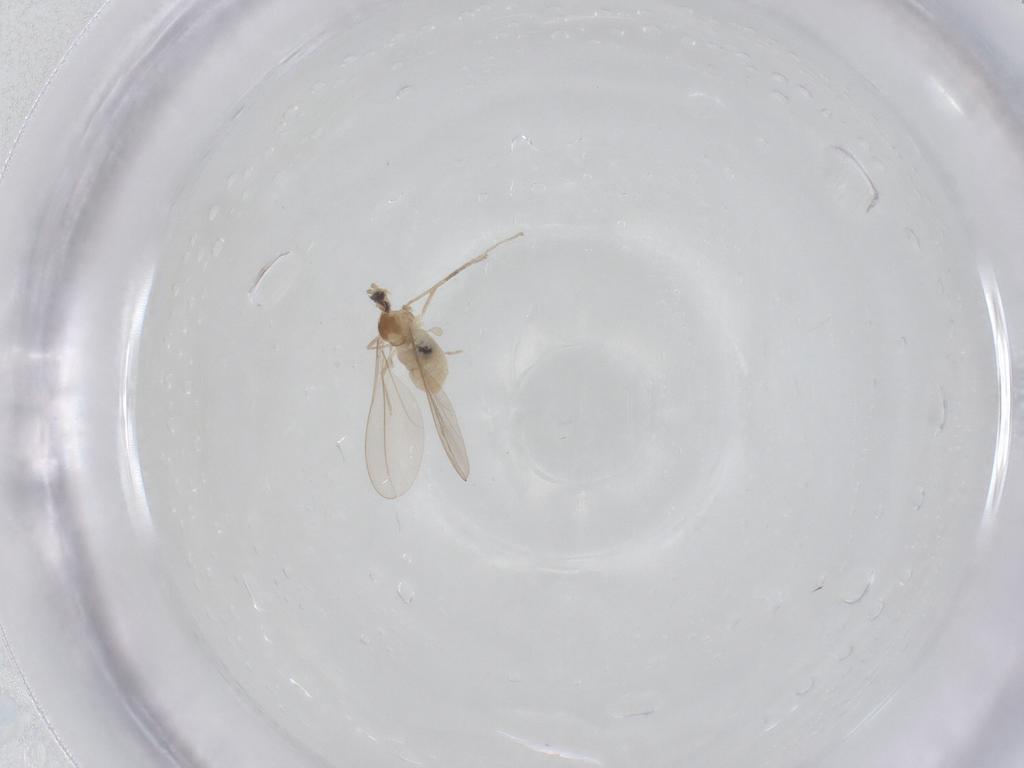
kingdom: Animalia
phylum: Arthropoda
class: Insecta
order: Diptera
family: Cecidomyiidae
